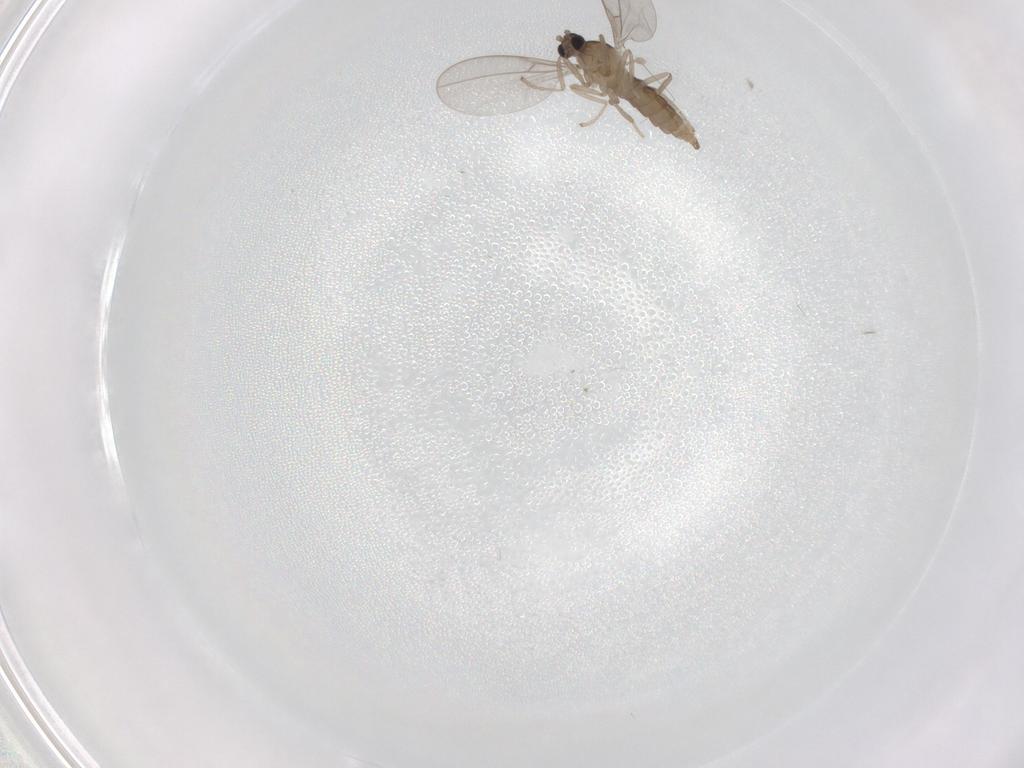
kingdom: Animalia
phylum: Arthropoda
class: Insecta
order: Diptera
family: Cecidomyiidae
